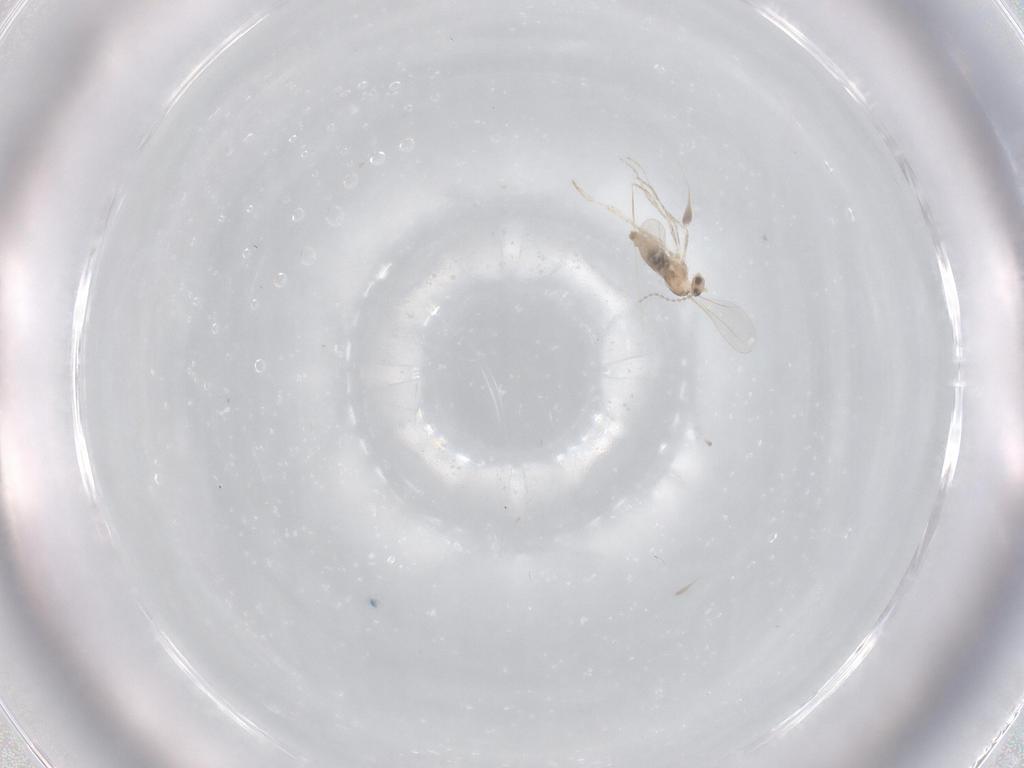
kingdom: Animalia
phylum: Arthropoda
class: Insecta
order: Diptera
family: Cecidomyiidae
